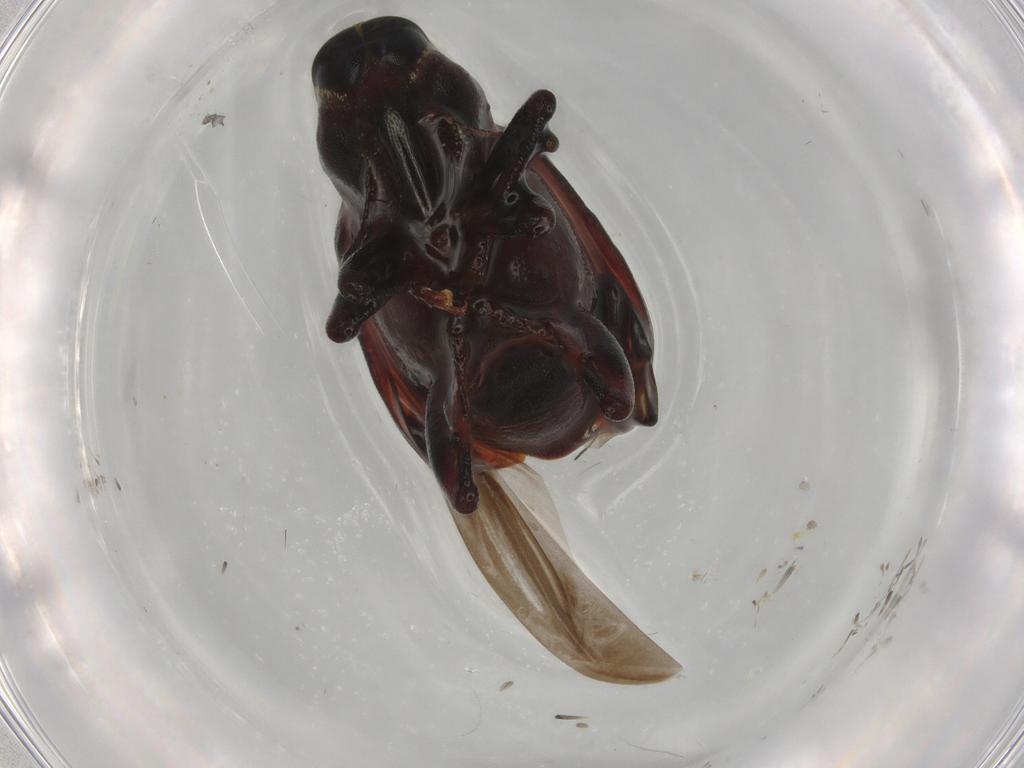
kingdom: Animalia
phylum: Arthropoda
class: Insecta
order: Coleoptera
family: Curculionidae
